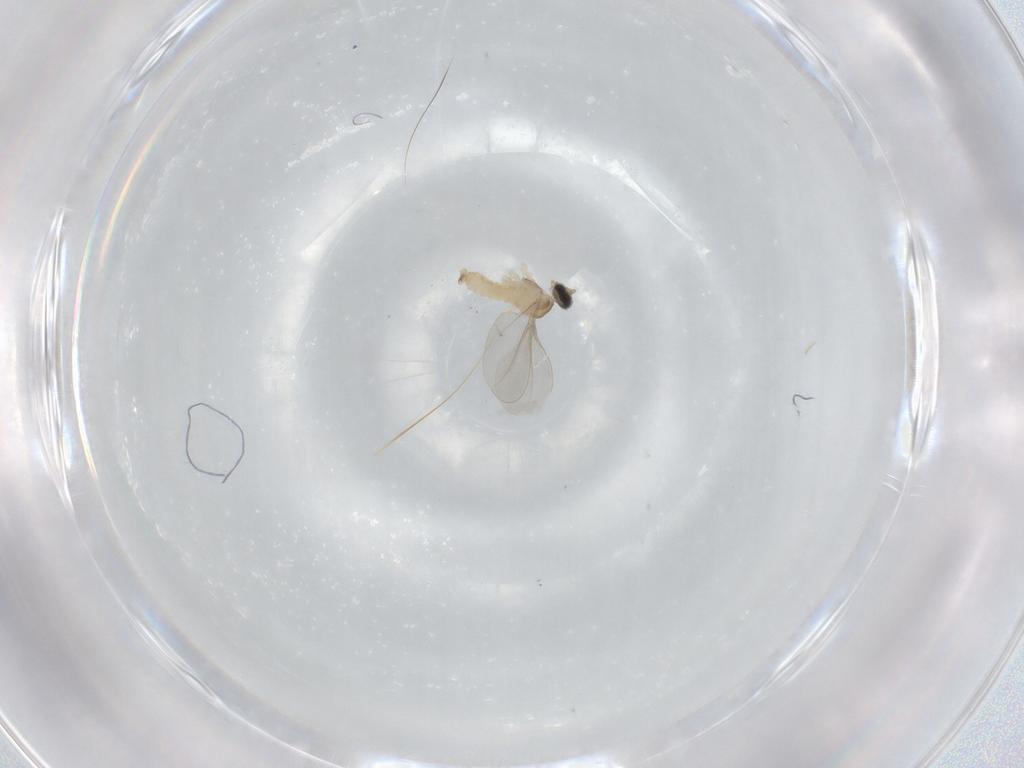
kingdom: Animalia
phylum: Arthropoda
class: Insecta
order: Diptera
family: Cecidomyiidae
